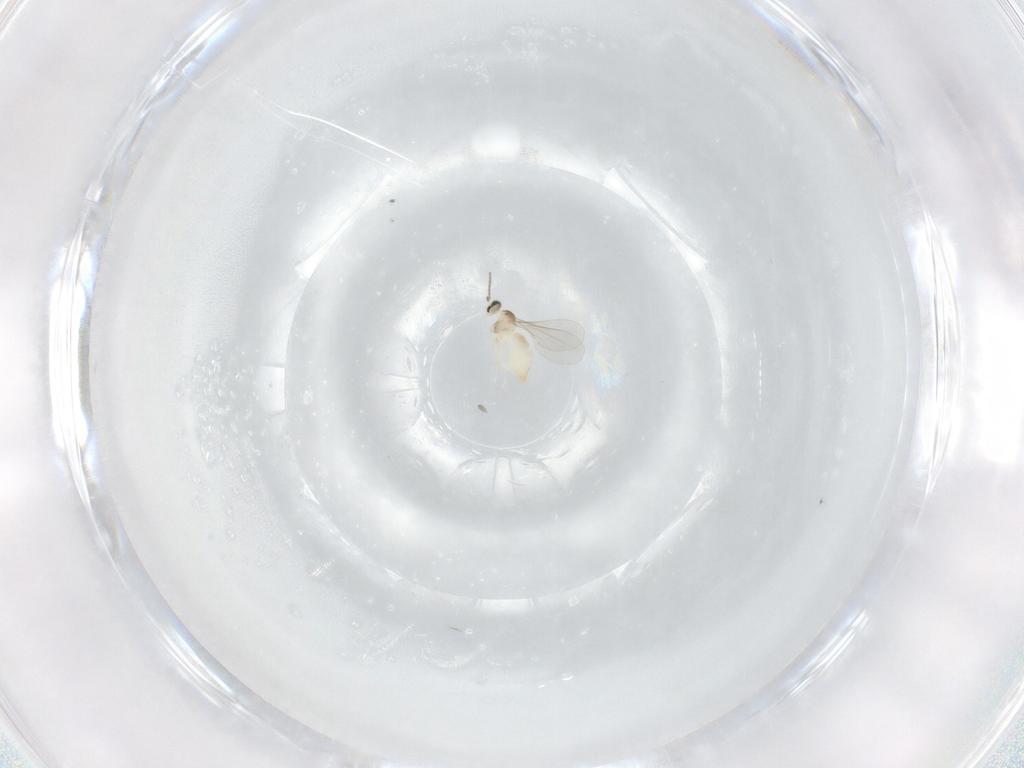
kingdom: Animalia
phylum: Arthropoda
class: Insecta
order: Diptera
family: Cecidomyiidae
